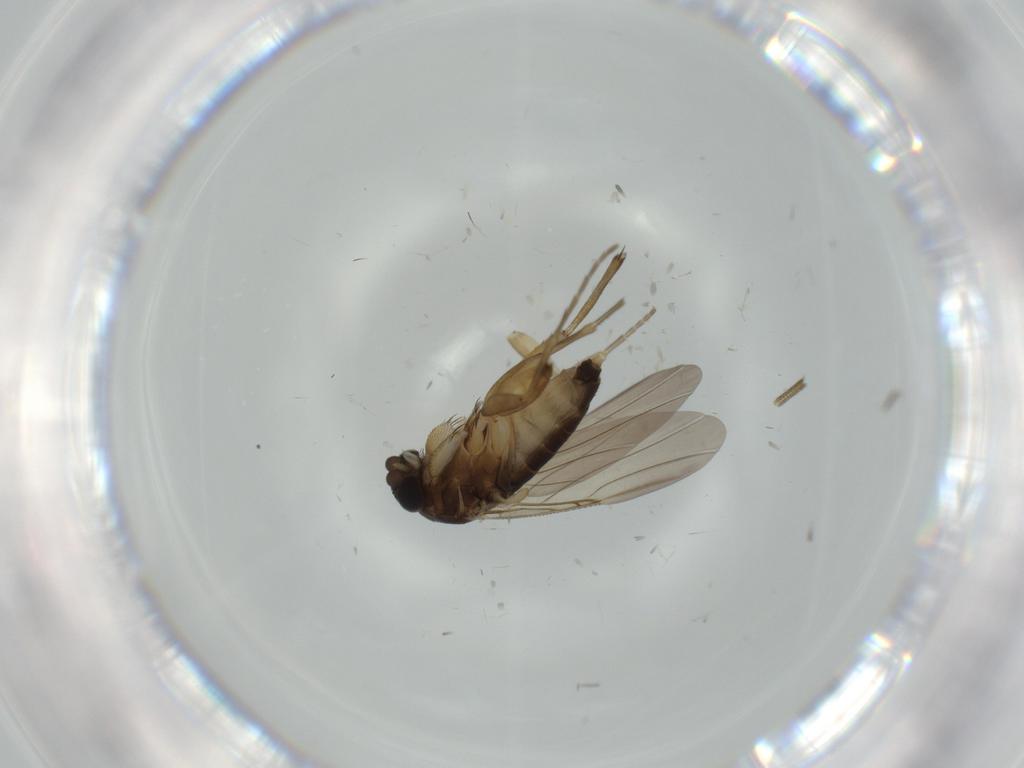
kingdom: Animalia
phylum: Arthropoda
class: Insecta
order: Diptera
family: Phoridae
